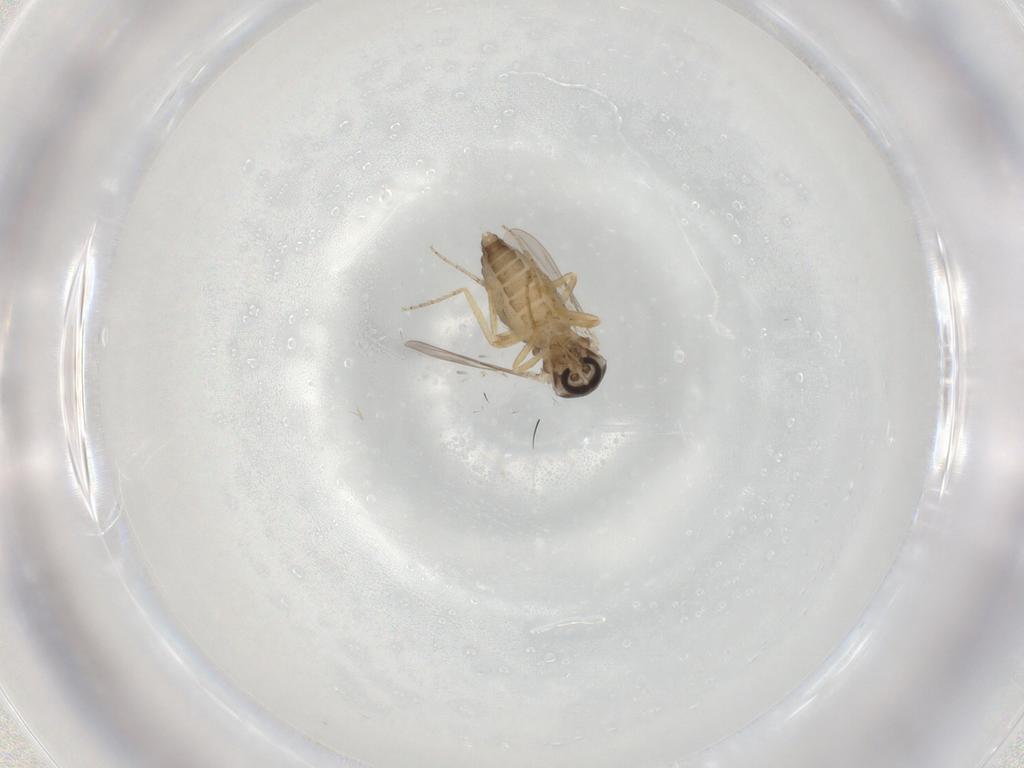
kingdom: Animalia
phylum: Arthropoda
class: Insecta
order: Diptera
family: Ceratopogonidae
